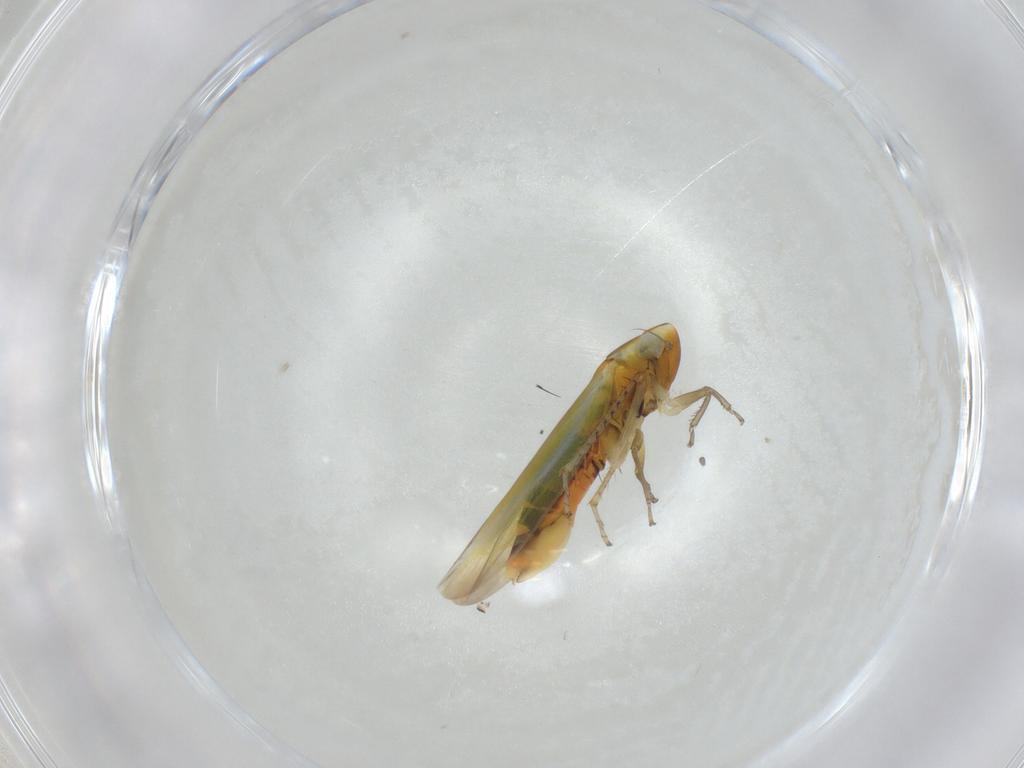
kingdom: Animalia
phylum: Arthropoda
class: Insecta
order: Hemiptera
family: Cicadellidae
